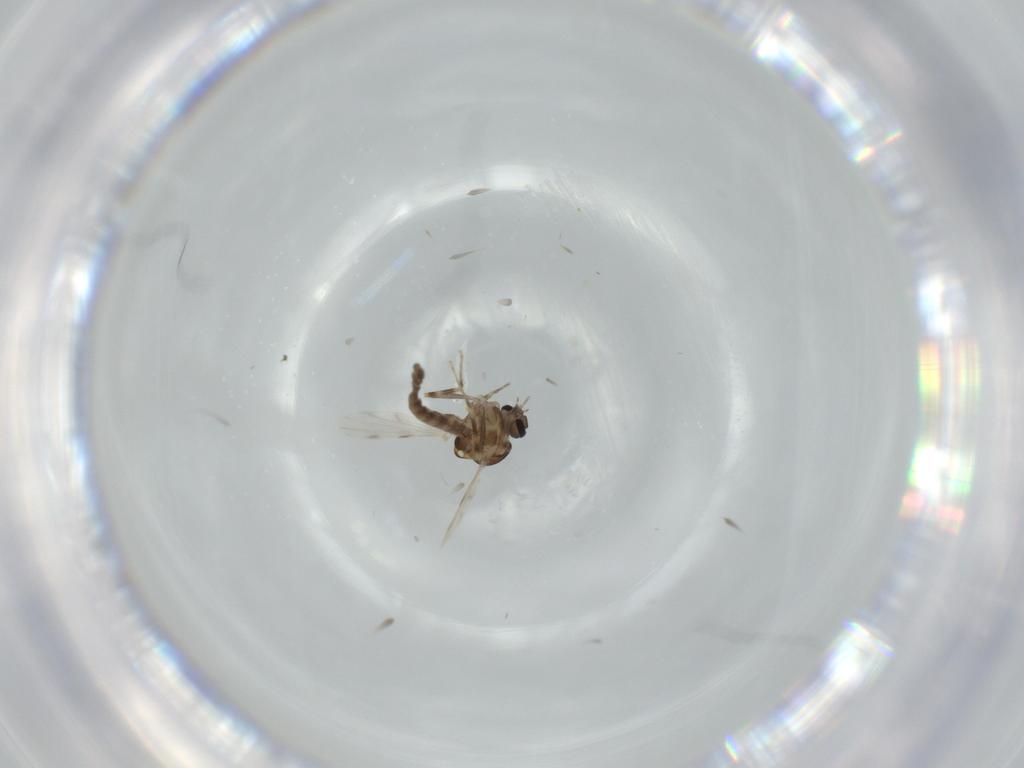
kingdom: Animalia
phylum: Arthropoda
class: Insecta
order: Diptera
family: Ceratopogonidae
